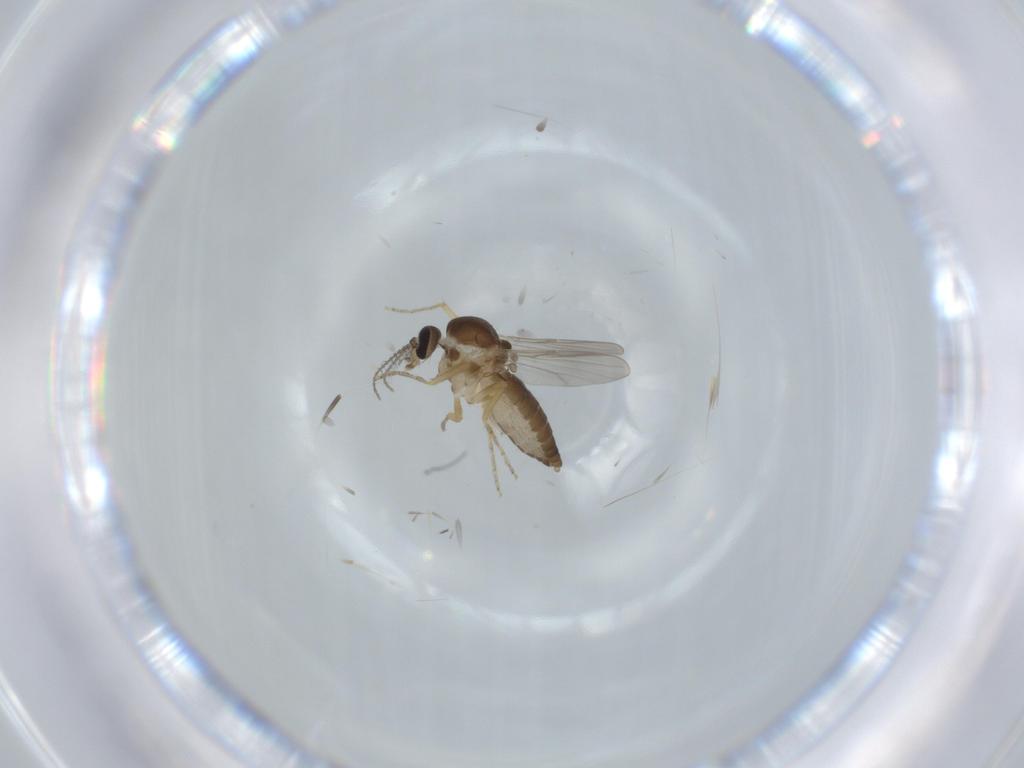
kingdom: Animalia
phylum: Arthropoda
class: Insecta
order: Diptera
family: Ceratopogonidae
